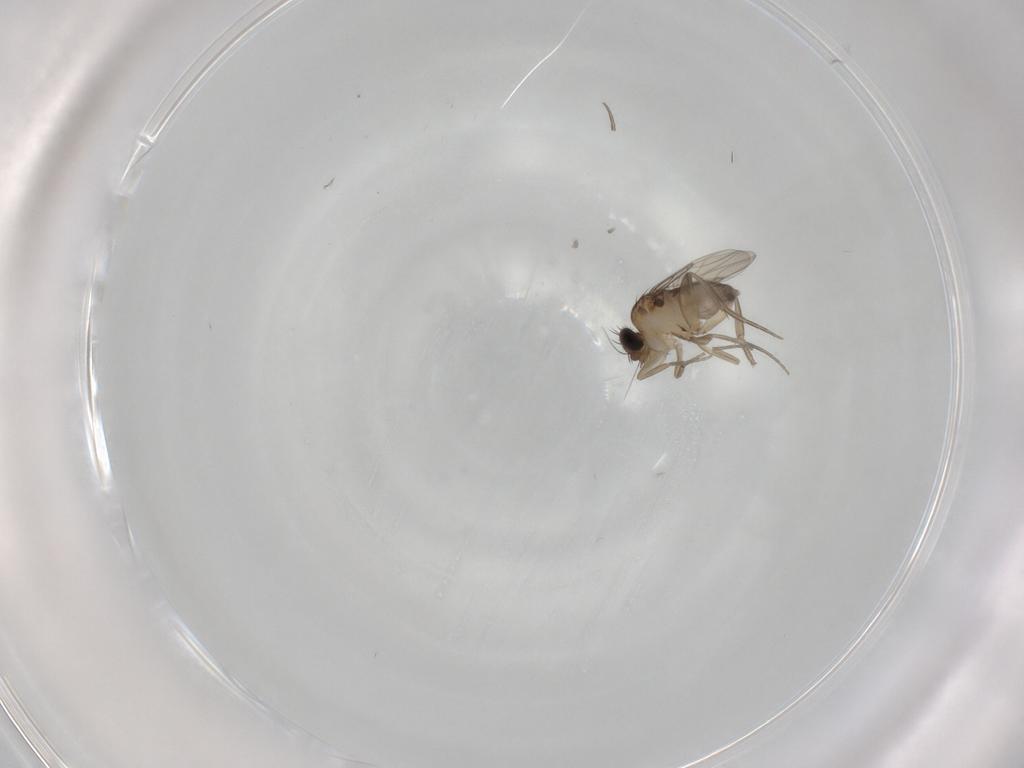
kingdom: Animalia
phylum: Arthropoda
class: Insecta
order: Diptera
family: Phoridae
